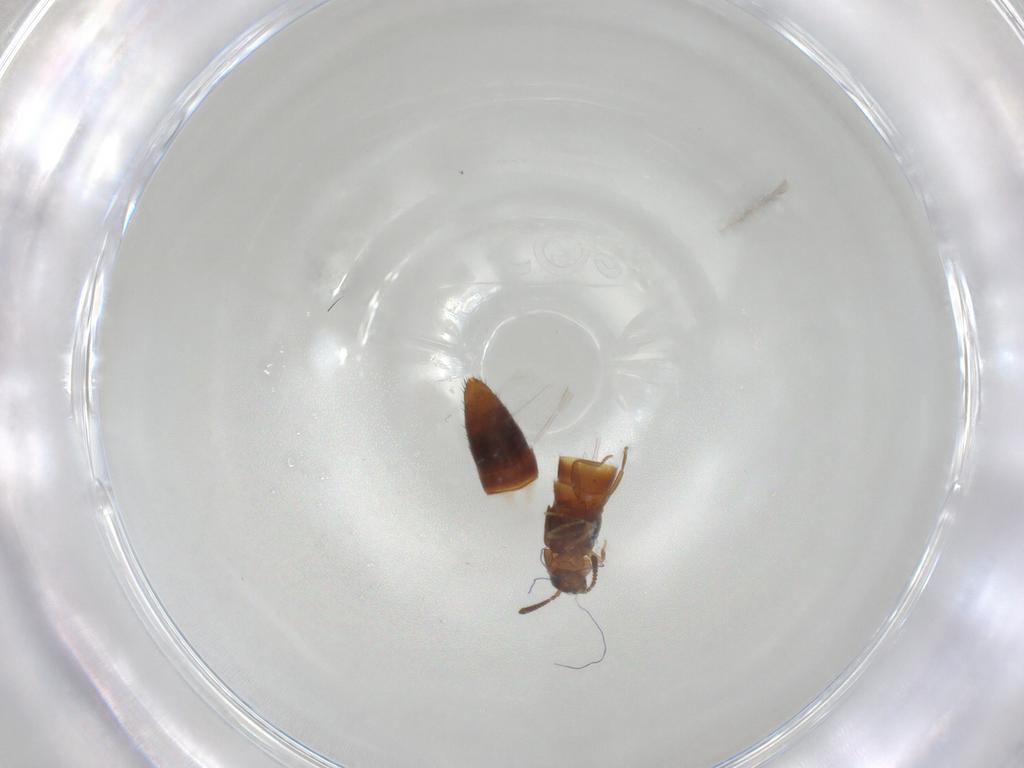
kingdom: Animalia
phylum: Arthropoda
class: Insecta
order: Coleoptera
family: Staphylinidae
